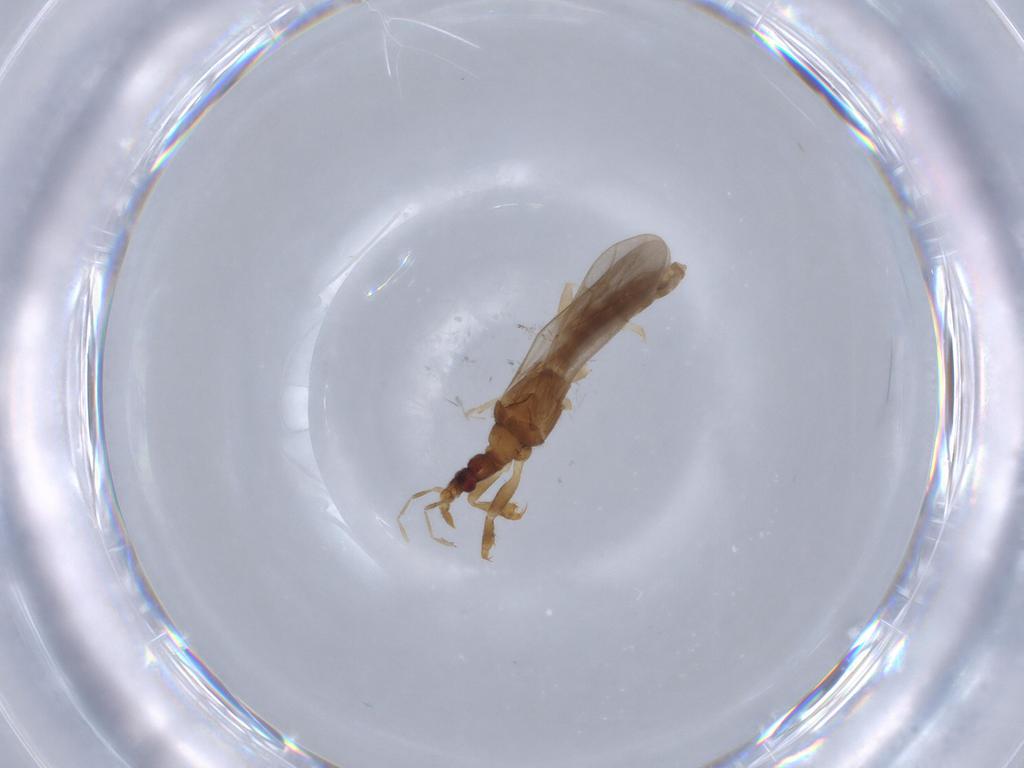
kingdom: Animalia
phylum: Arthropoda
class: Insecta
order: Hemiptera
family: Enicocephalidae
